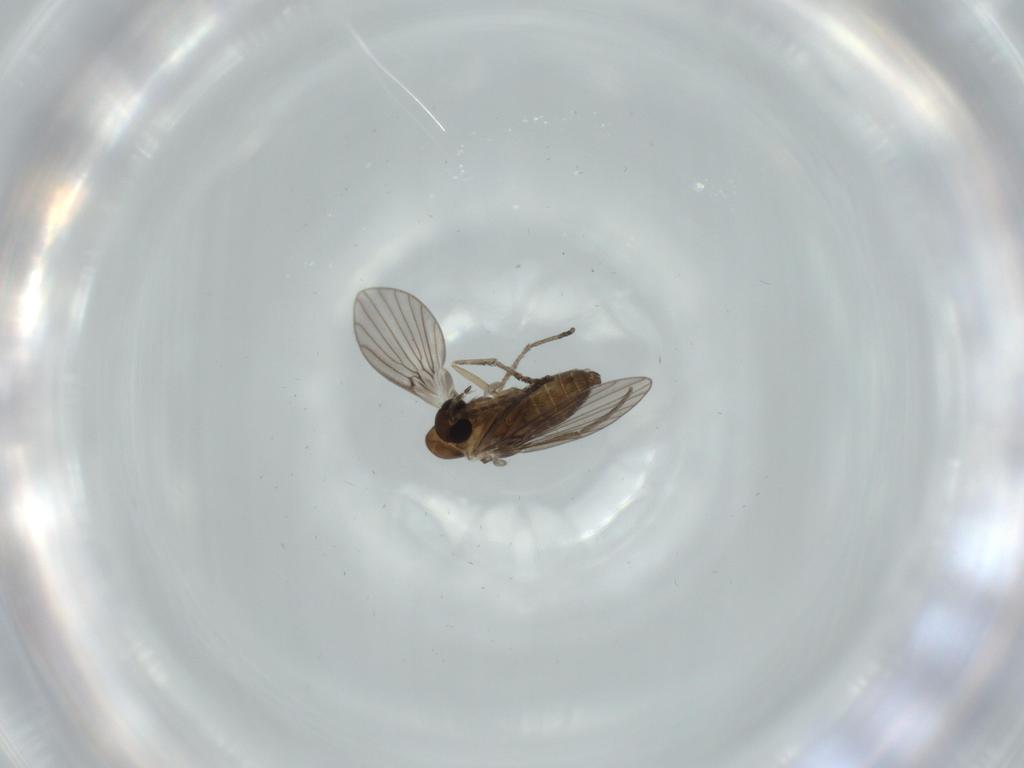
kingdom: Animalia
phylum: Arthropoda
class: Insecta
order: Diptera
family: Psychodidae
